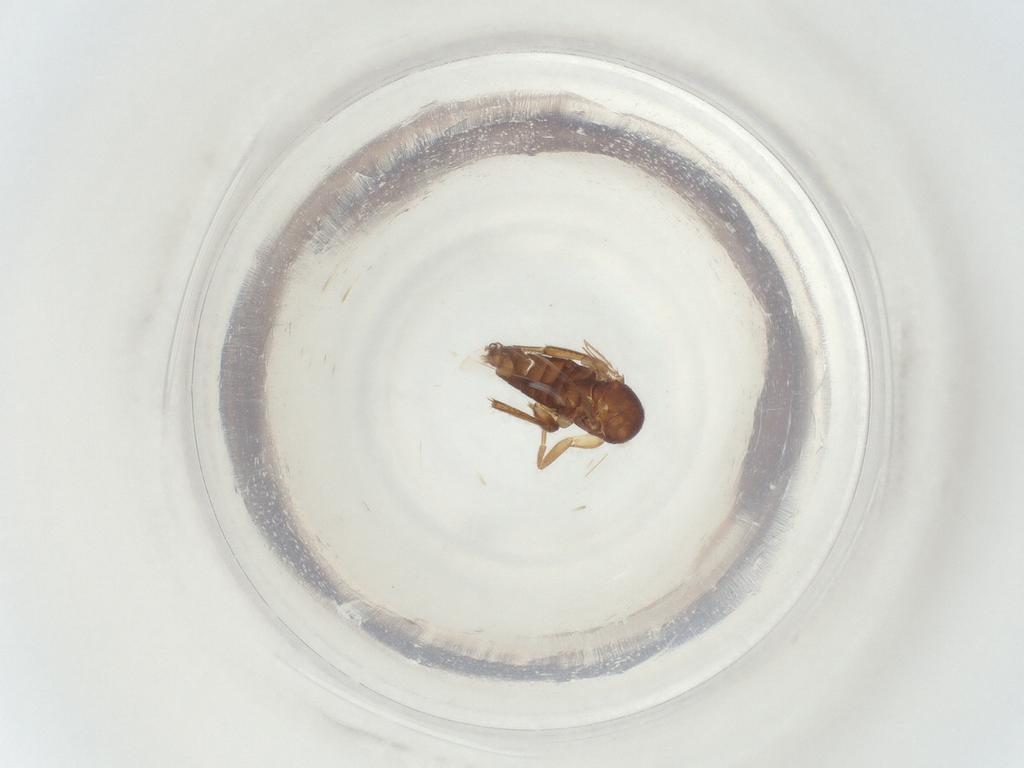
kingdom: Animalia
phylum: Arthropoda
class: Insecta
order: Diptera
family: Phoridae
